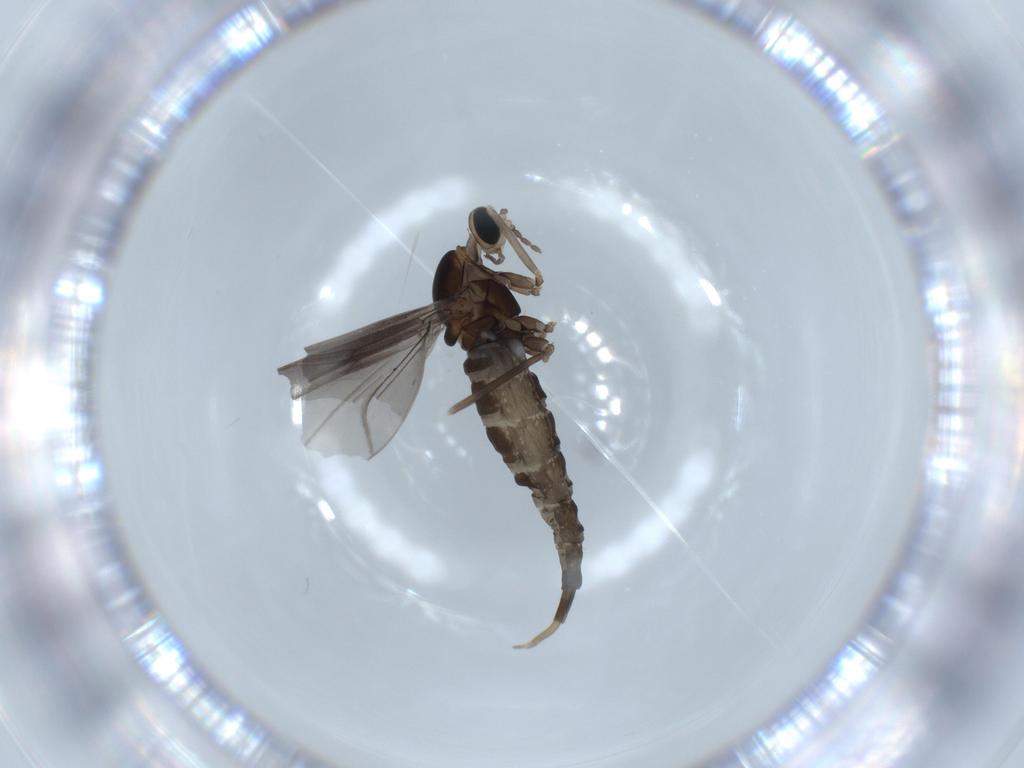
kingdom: Animalia
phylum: Arthropoda
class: Insecta
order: Diptera
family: Cecidomyiidae
